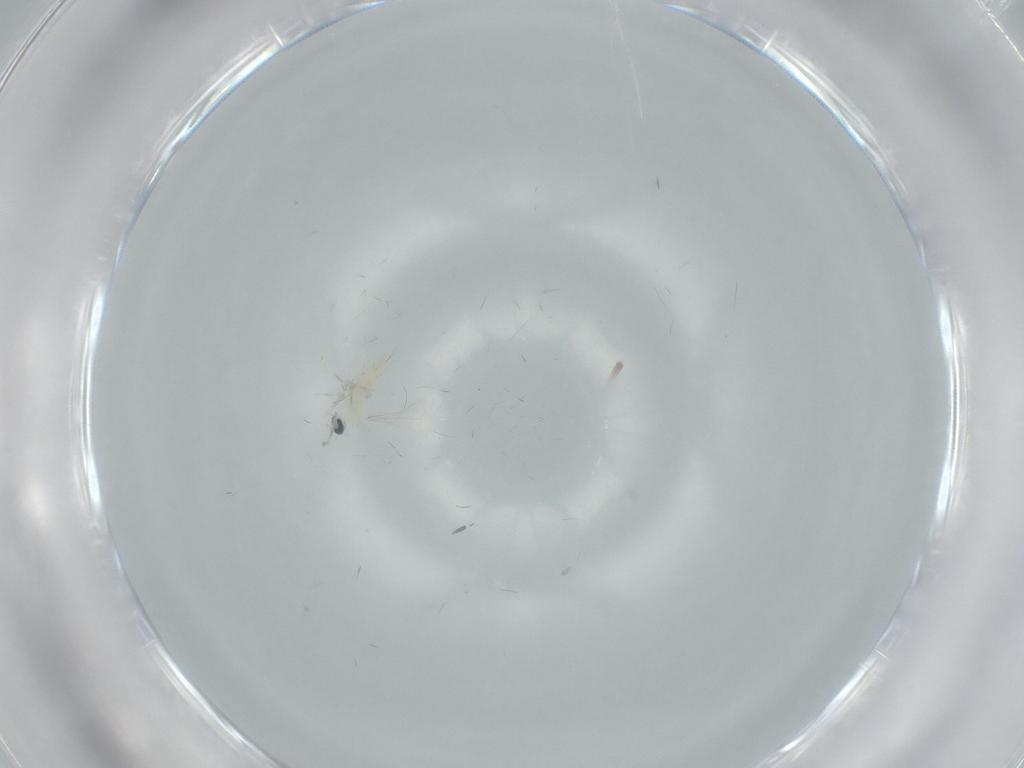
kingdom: Animalia
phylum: Arthropoda
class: Insecta
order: Diptera
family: Cecidomyiidae
